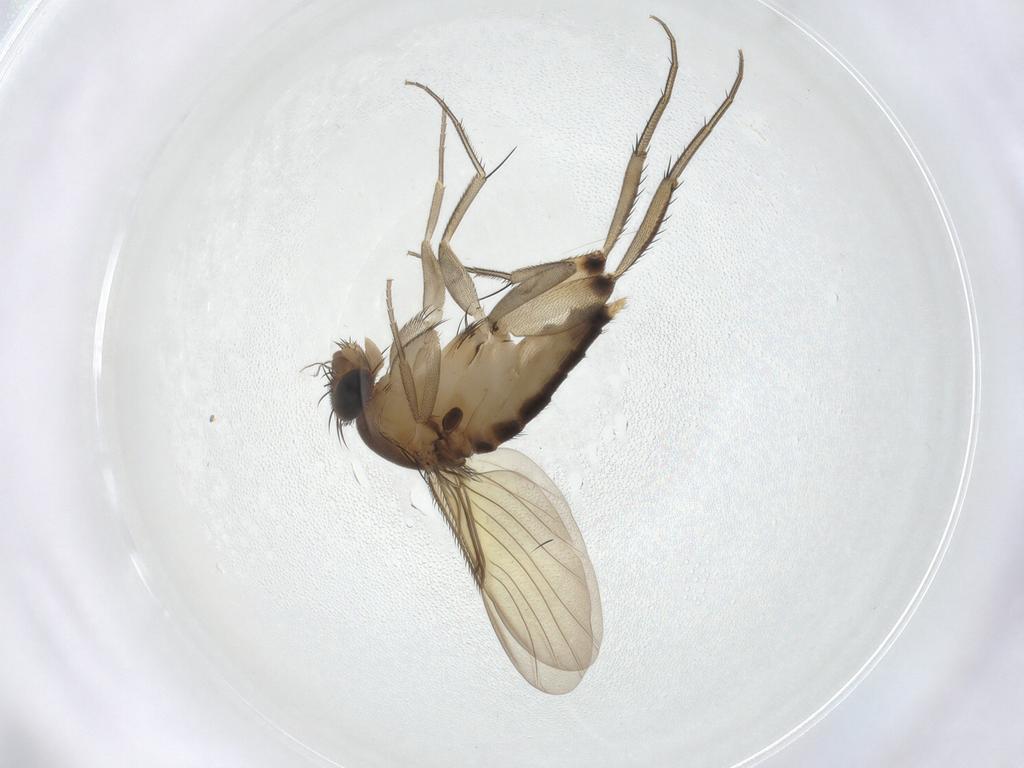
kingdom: Animalia
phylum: Arthropoda
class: Insecta
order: Diptera
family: Phoridae
